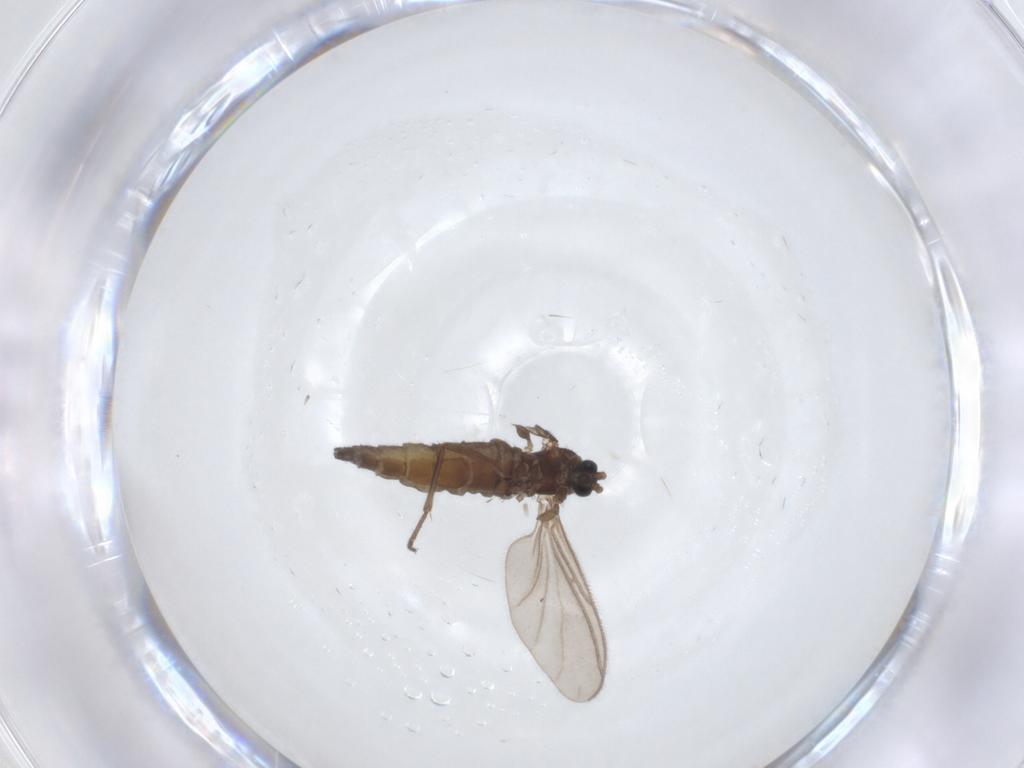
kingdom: Animalia
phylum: Arthropoda
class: Insecta
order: Diptera
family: Sciaridae
